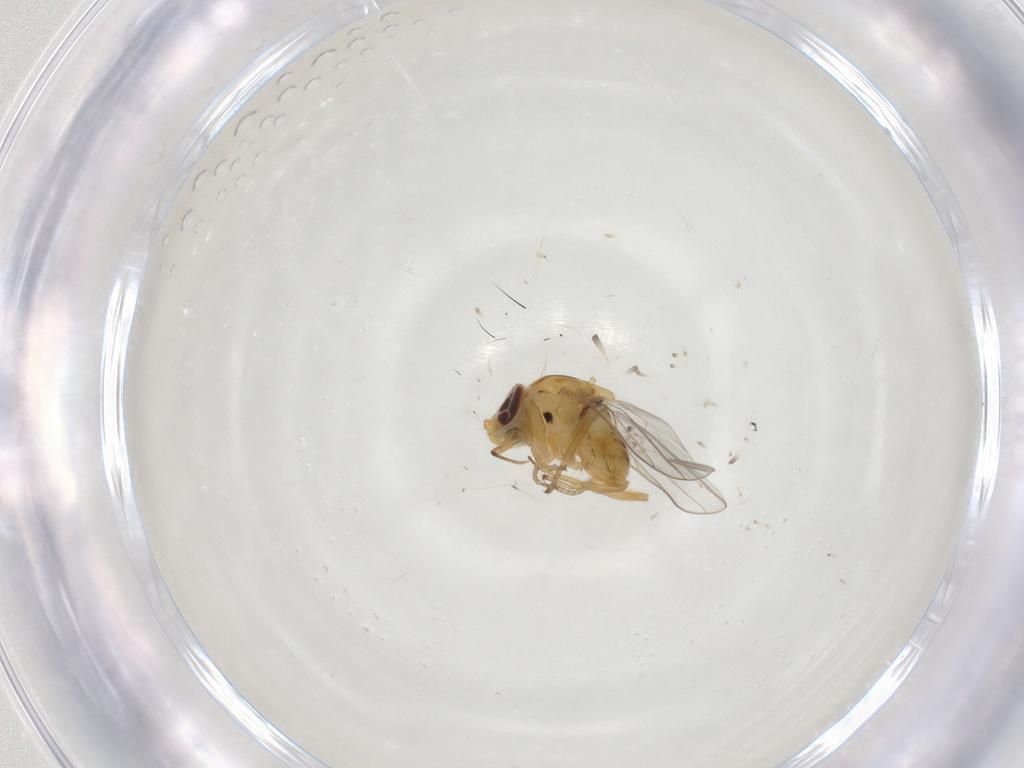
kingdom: Animalia
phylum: Arthropoda
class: Insecta
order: Diptera
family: Chloropidae
